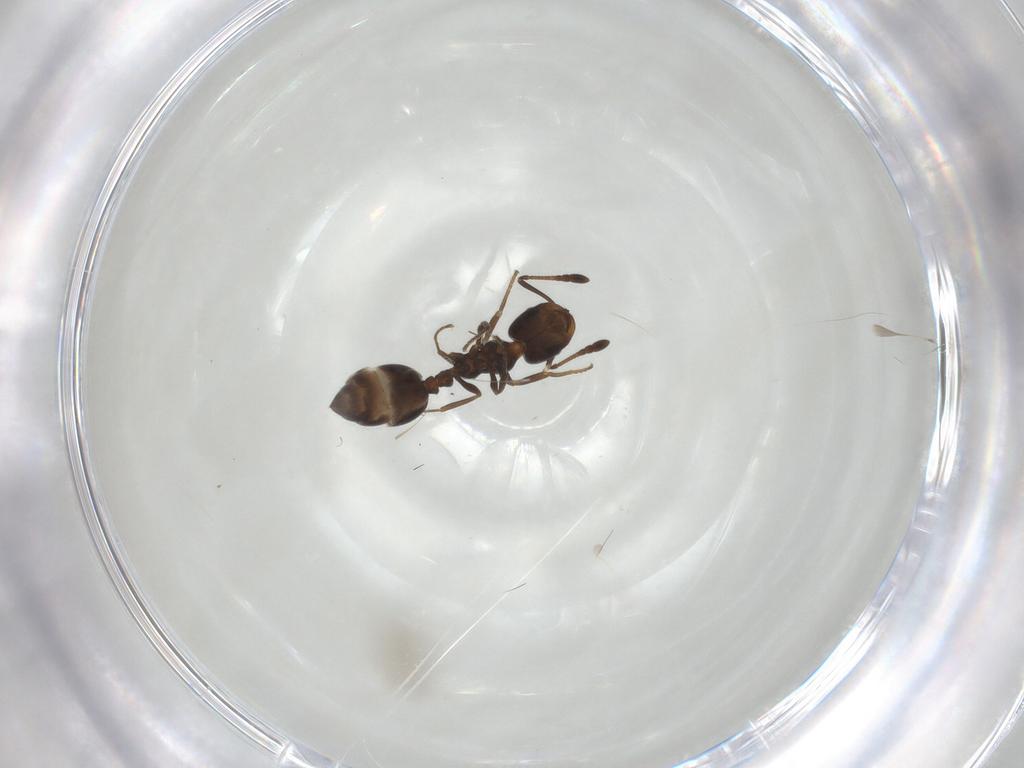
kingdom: Animalia
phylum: Arthropoda
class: Insecta
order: Hymenoptera
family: Formicidae
